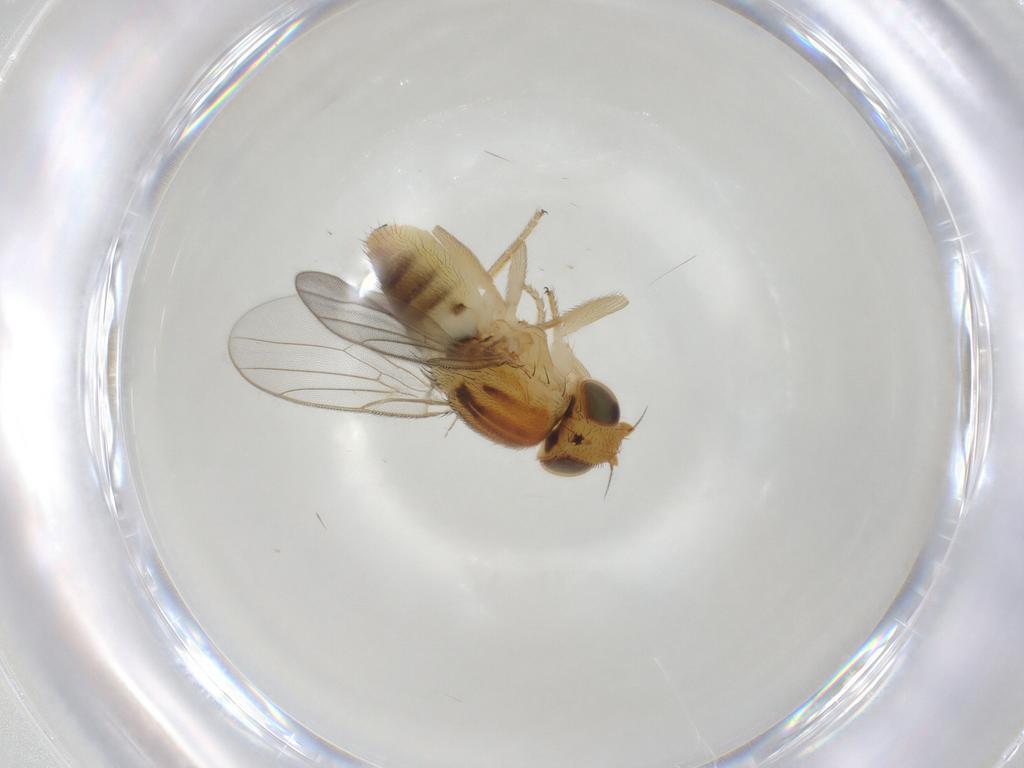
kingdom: Animalia
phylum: Arthropoda
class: Insecta
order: Diptera
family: Chloropidae
